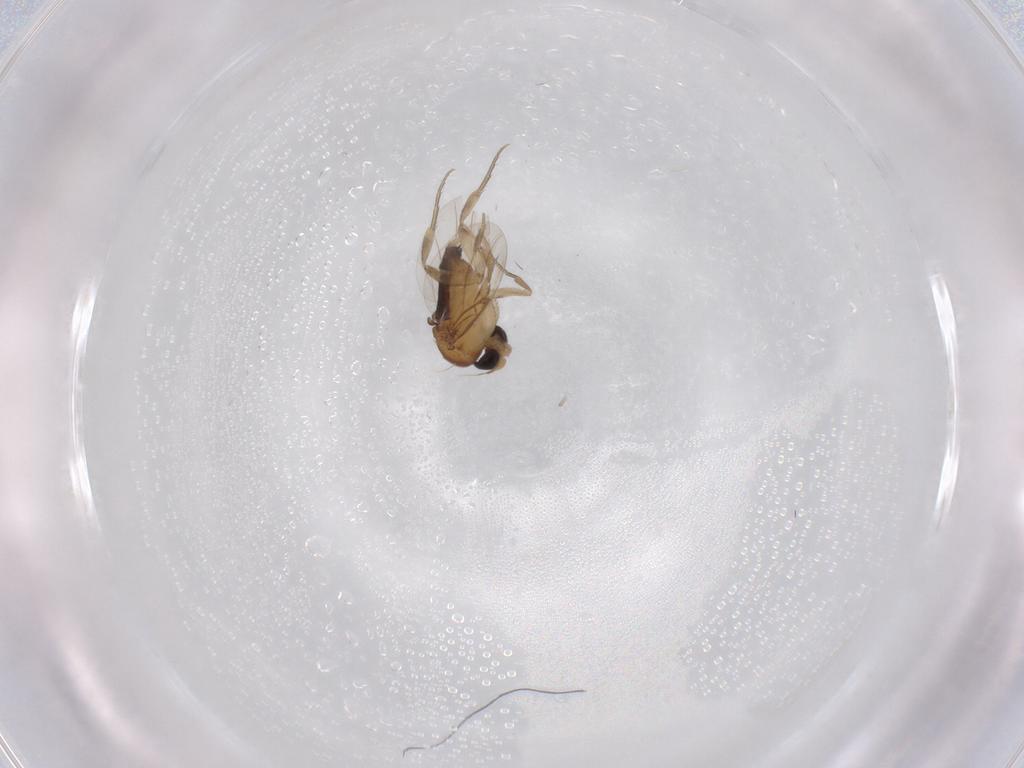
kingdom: Animalia
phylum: Arthropoda
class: Insecta
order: Diptera
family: Phoridae
